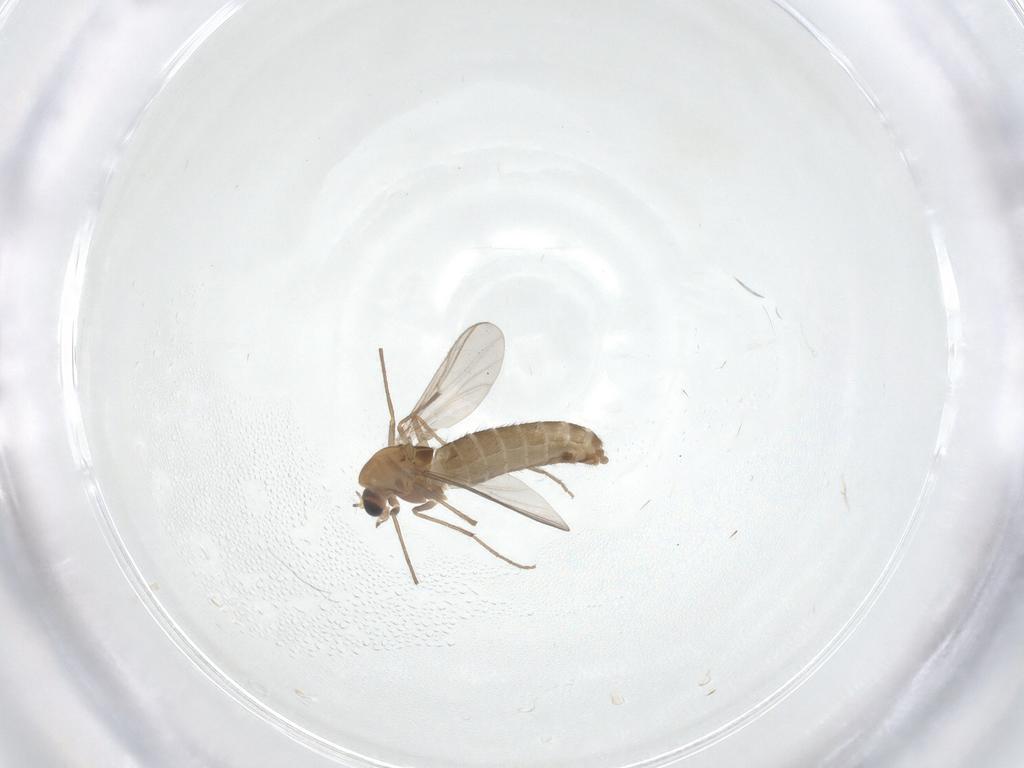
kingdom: Animalia
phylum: Arthropoda
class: Insecta
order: Diptera
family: Chironomidae
